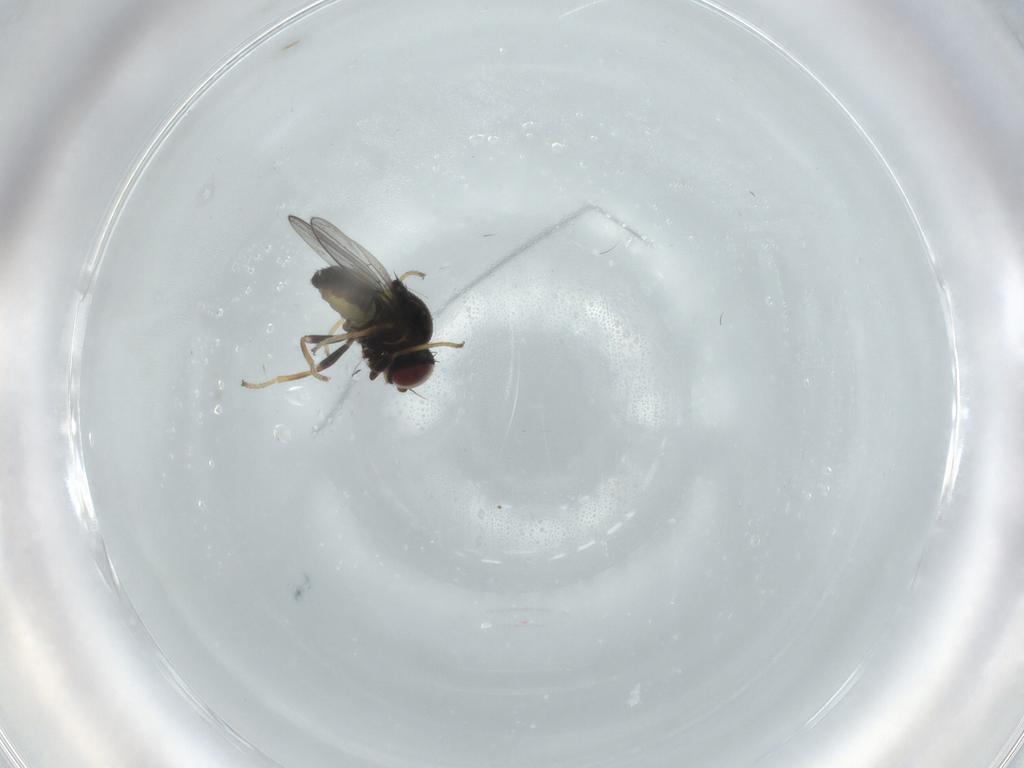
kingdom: Animalia
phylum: Arthropoda
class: Insecta
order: Diptera
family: Chloropidae
